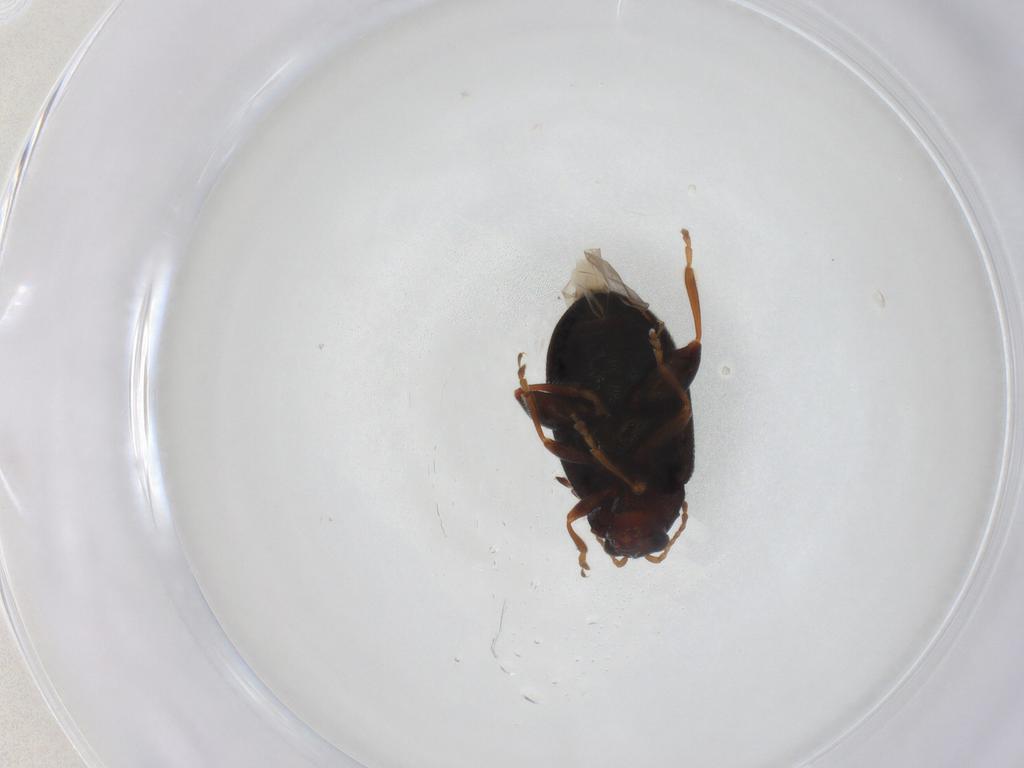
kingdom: Animalia
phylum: Arthropoda
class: Insecta
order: Coleoptera
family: Chrysomelidae
